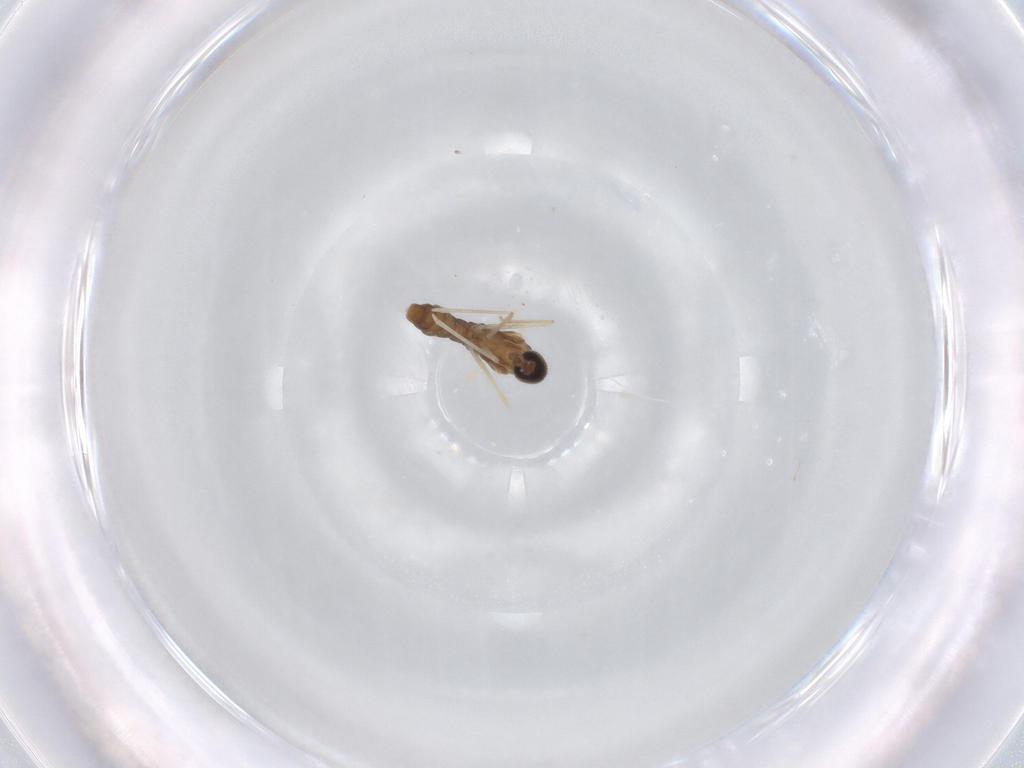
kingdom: Animalia
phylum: Arthropoda
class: Insecta
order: Diptera
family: Cecidomyiidae
